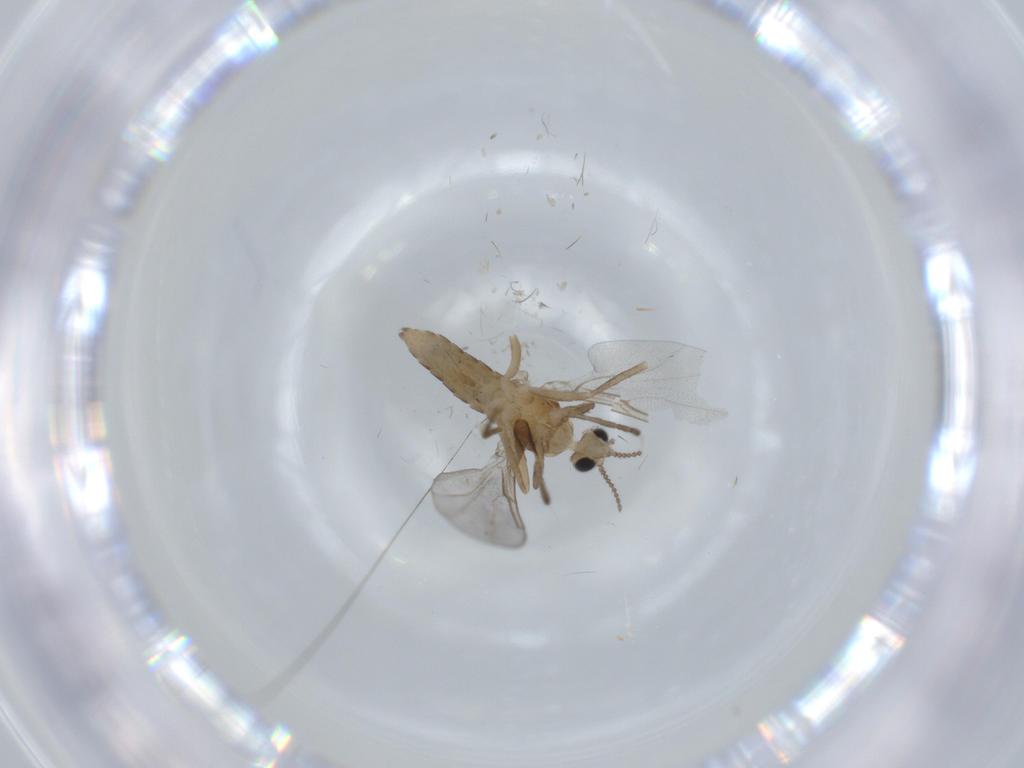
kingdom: Animalia
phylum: Arthropoda
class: Insecta
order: Diptera
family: Cecidomyiidae
